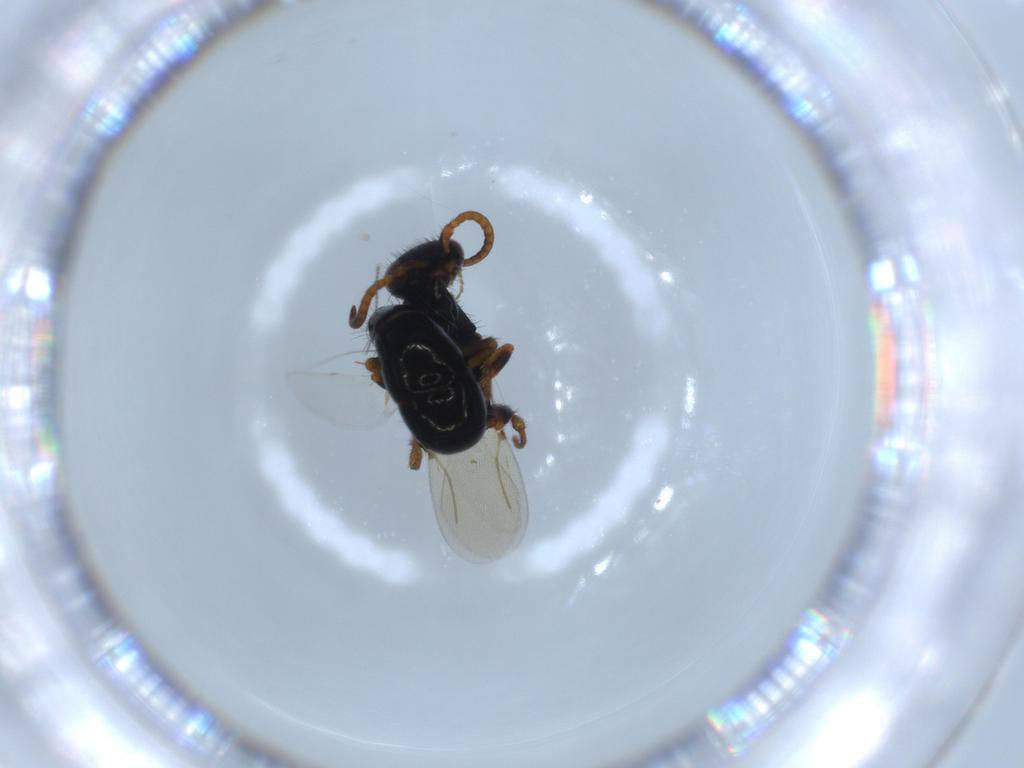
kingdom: Animalia
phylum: Arthropoda
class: Insecta
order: Hymenoptera
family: Bethylidae
